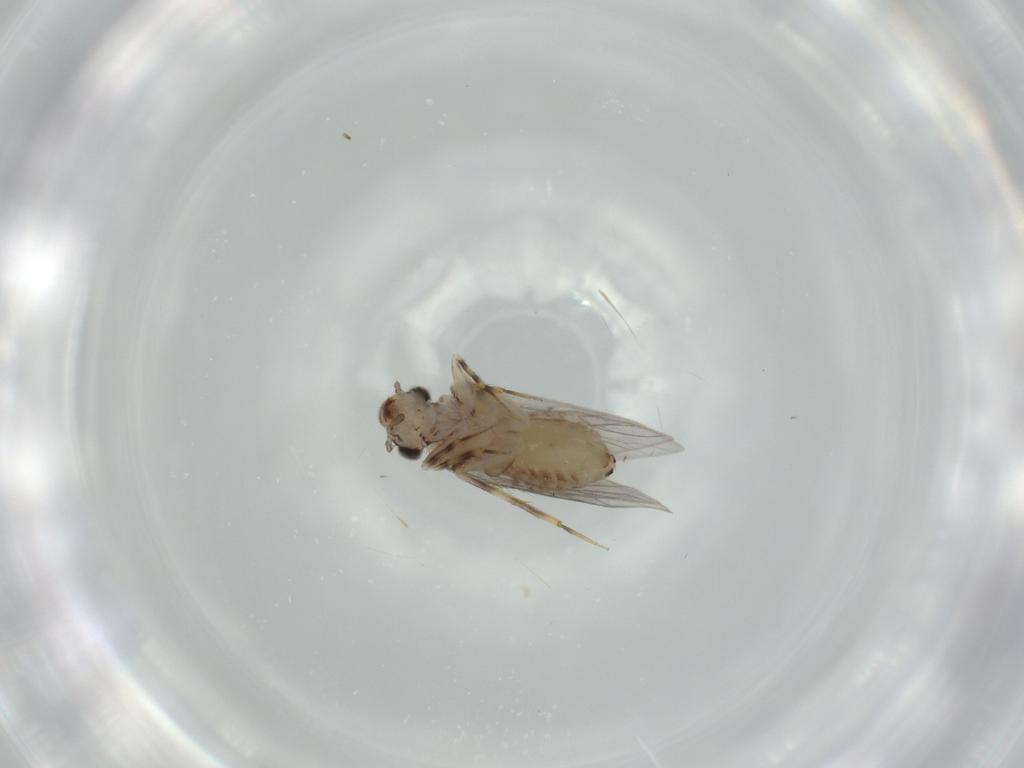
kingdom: Animalia
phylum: Arthropoda
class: Insecta
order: Psocodea
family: Lepidopsocidae
